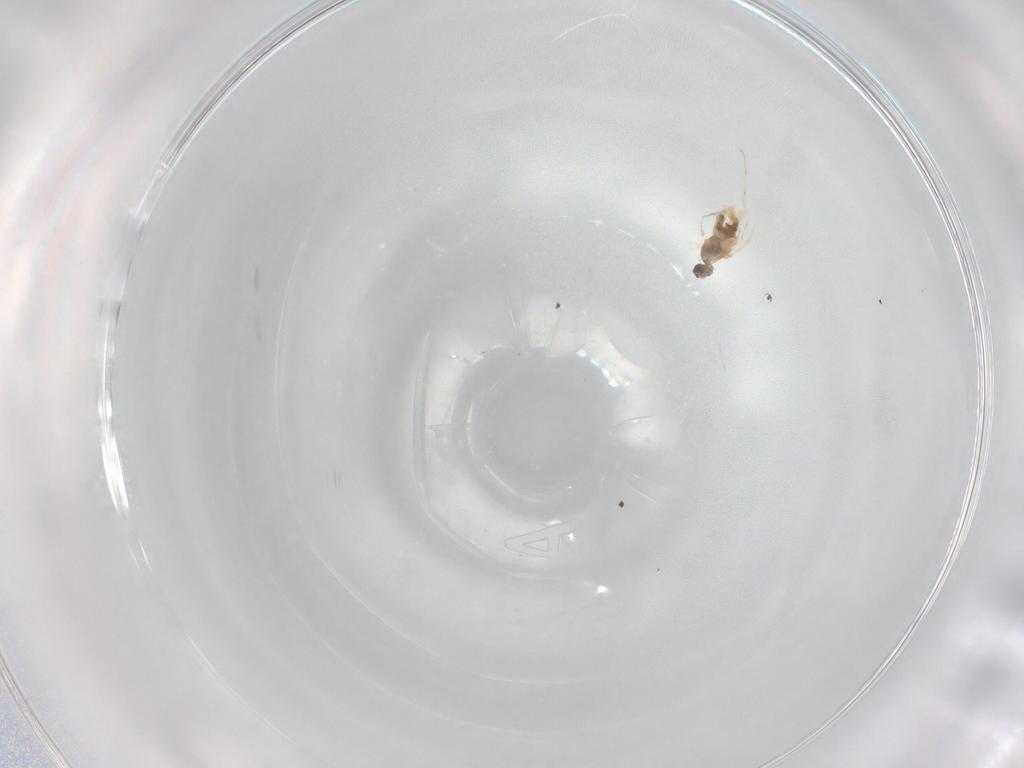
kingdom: Animalia
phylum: Arthropoda
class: Insecta
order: Diptera
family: Cecidomyiidae
